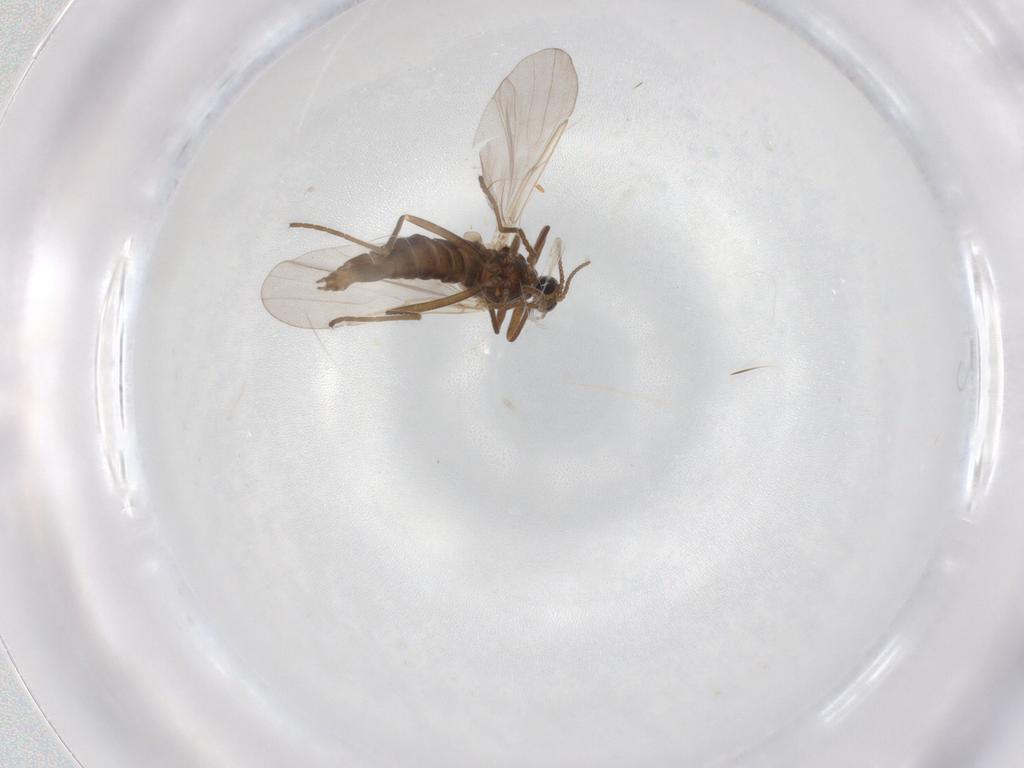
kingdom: Animalia
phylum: Arthropoda
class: Insecta
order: Diptera
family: Cecidomyiidae
